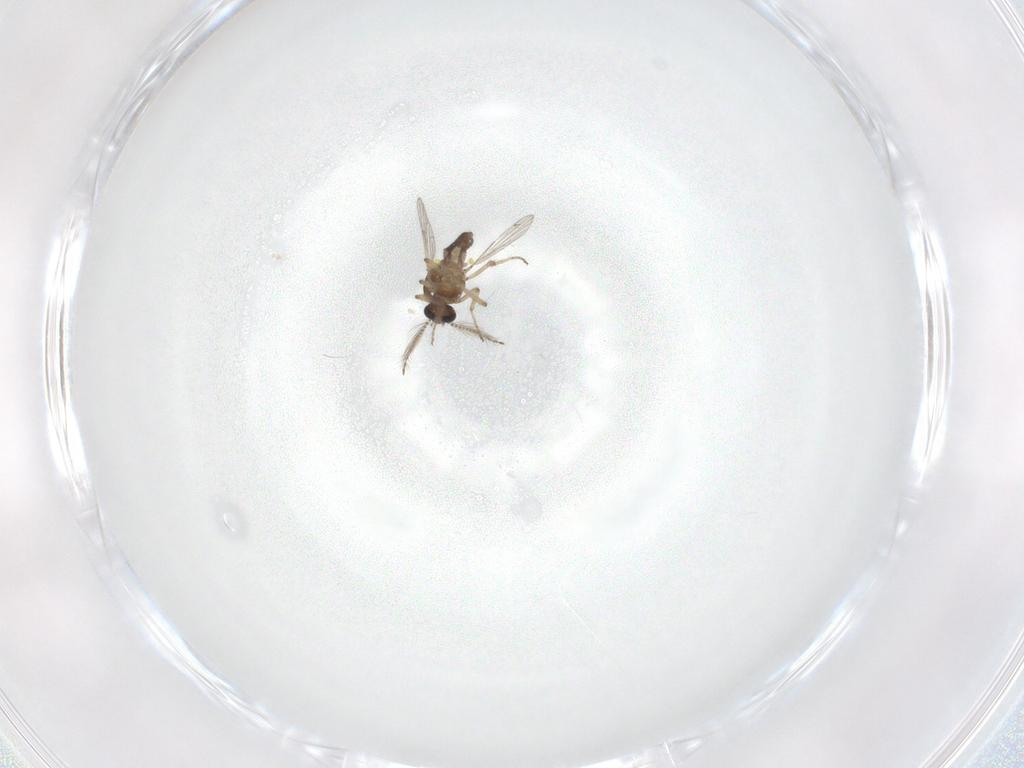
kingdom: Animalia
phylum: Arthropoda
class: Insecta
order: Diptera
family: Ceratopogonidae
